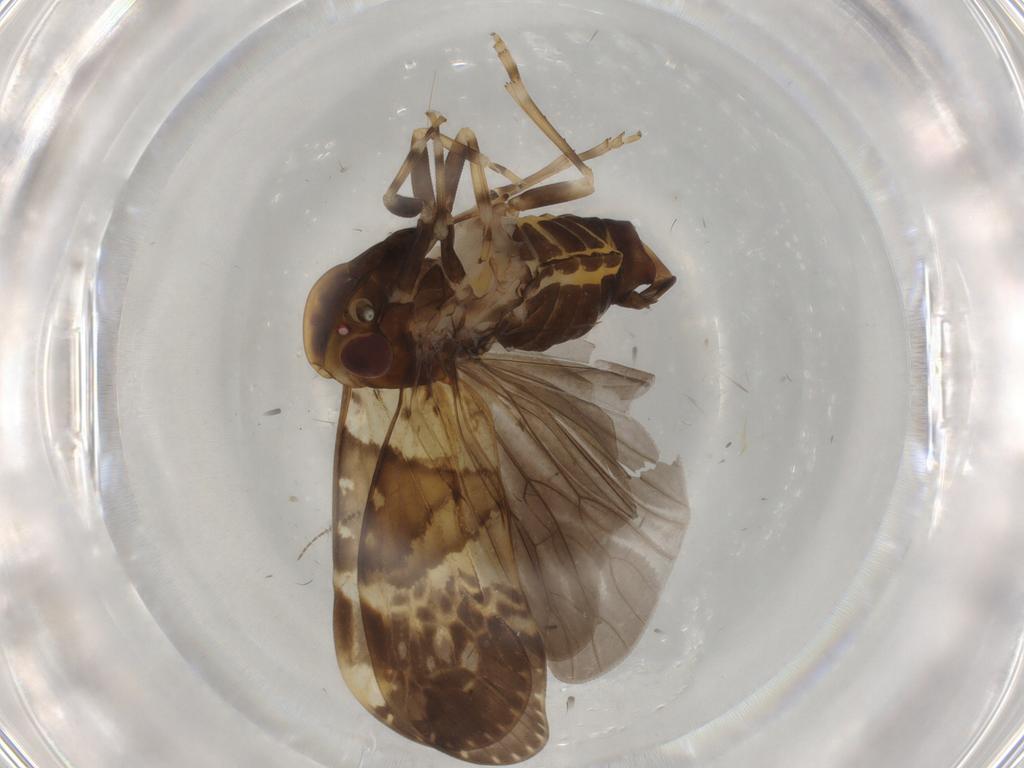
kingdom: Animalia
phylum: Arthropoda
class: Insecta
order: Hemiptera
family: Cixiidae
